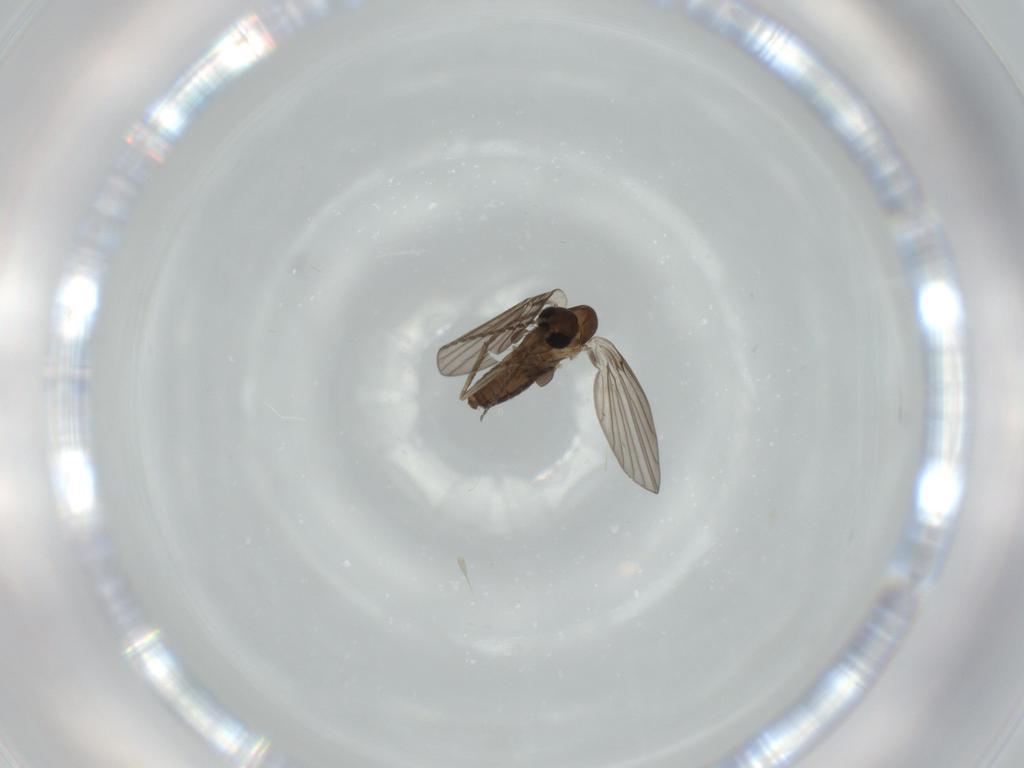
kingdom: Animalia
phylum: Arthropoda
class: Insecta
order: Diptera
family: Psychodidae
